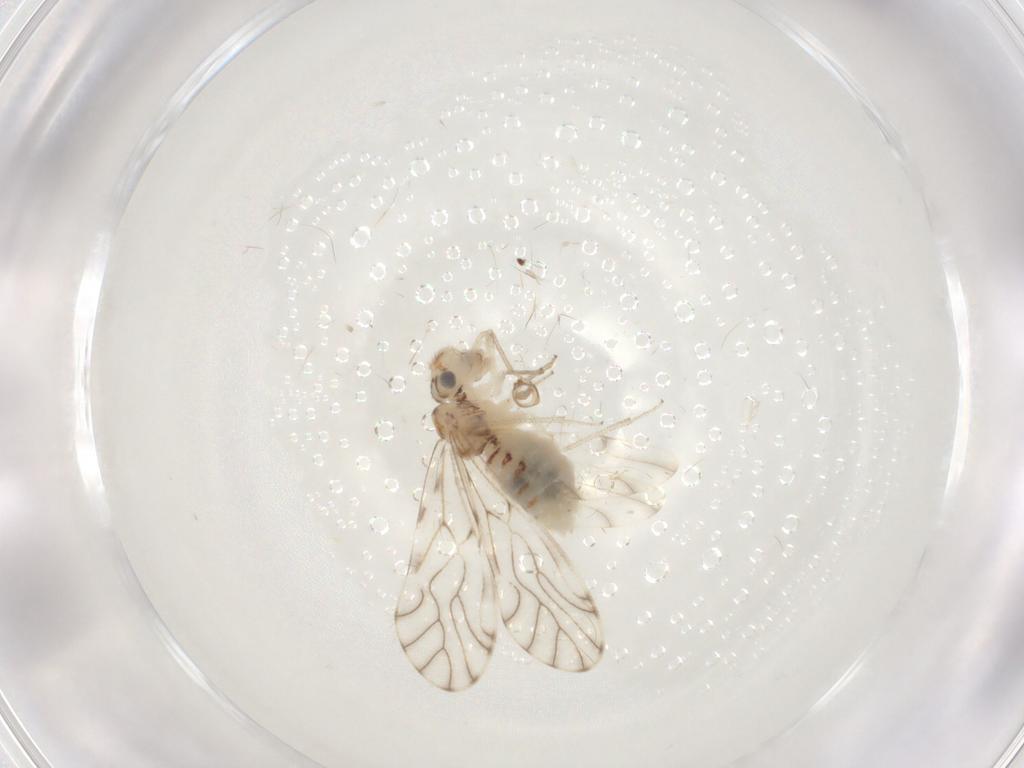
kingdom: Animalia
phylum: Arthropoda
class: Insecta
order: Psocodea
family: Philotarsidae
